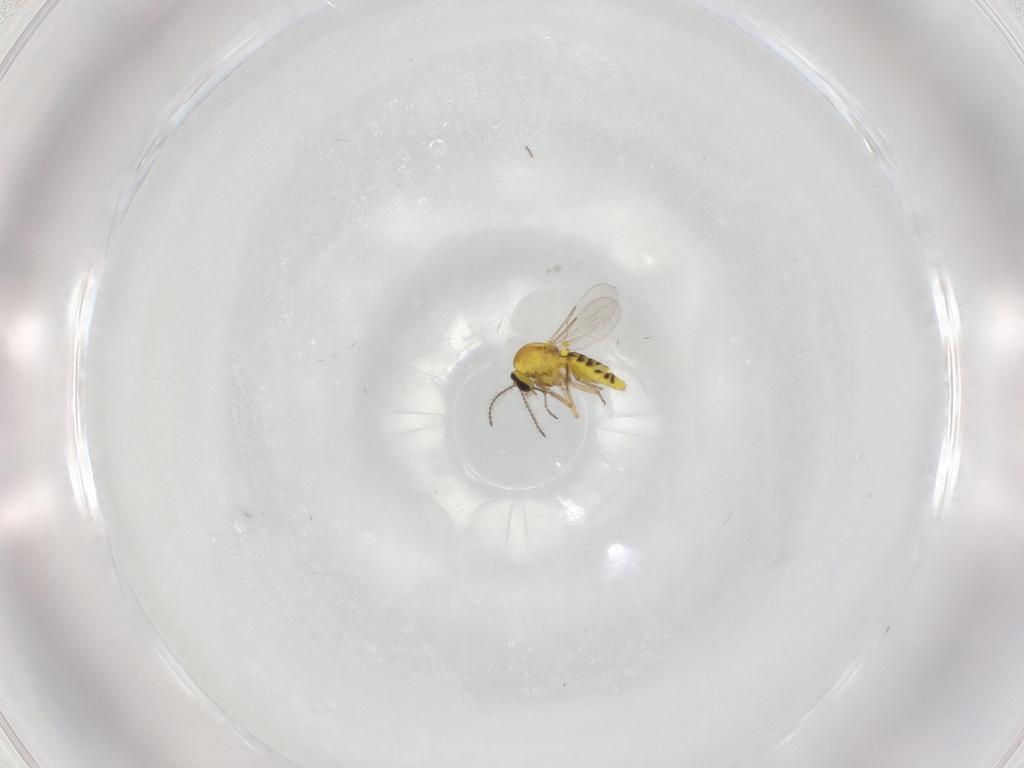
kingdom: Animalia
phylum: Arthropoda
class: Insecta
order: Diptera
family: Ceratopogonidae
